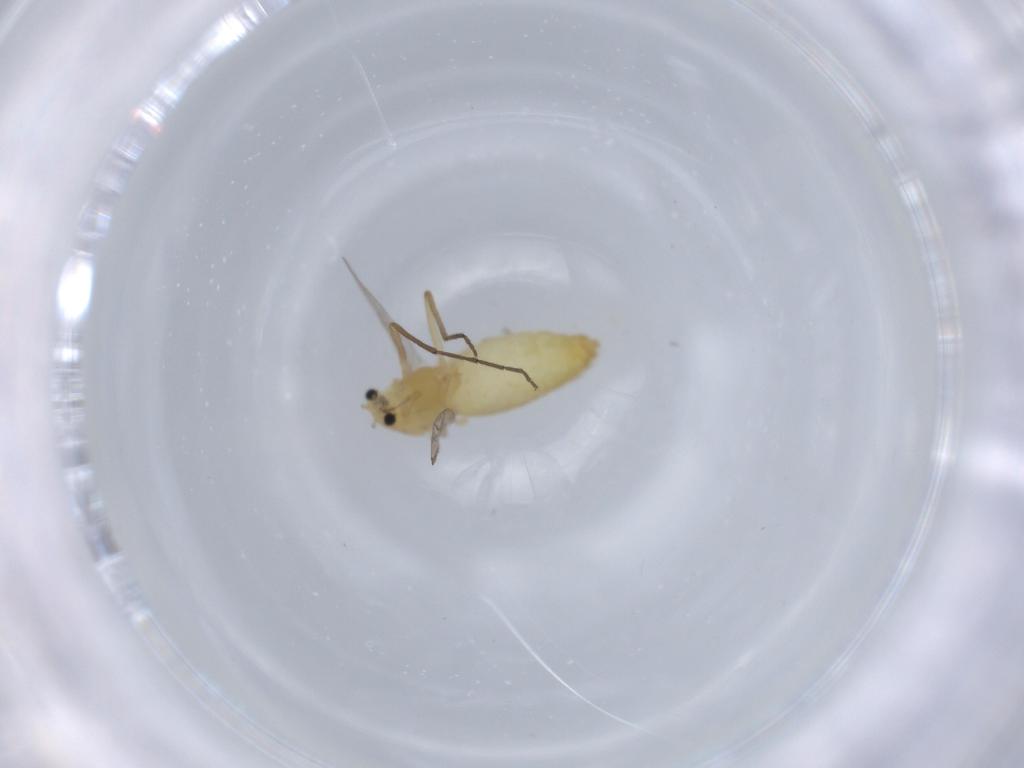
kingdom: Animalia
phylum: Arthropoda
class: Insecta
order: Diptera
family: Chironomidae
